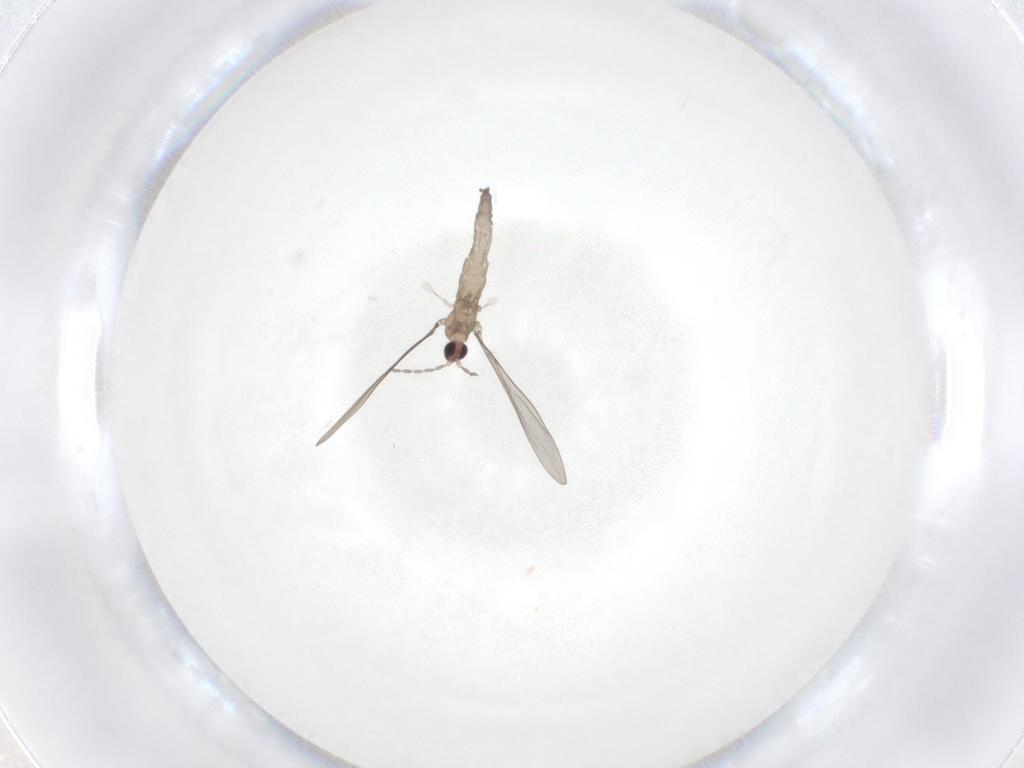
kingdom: Animalia
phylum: Arthropoda
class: Insecta
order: Diptera
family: Cecidomyiidae
